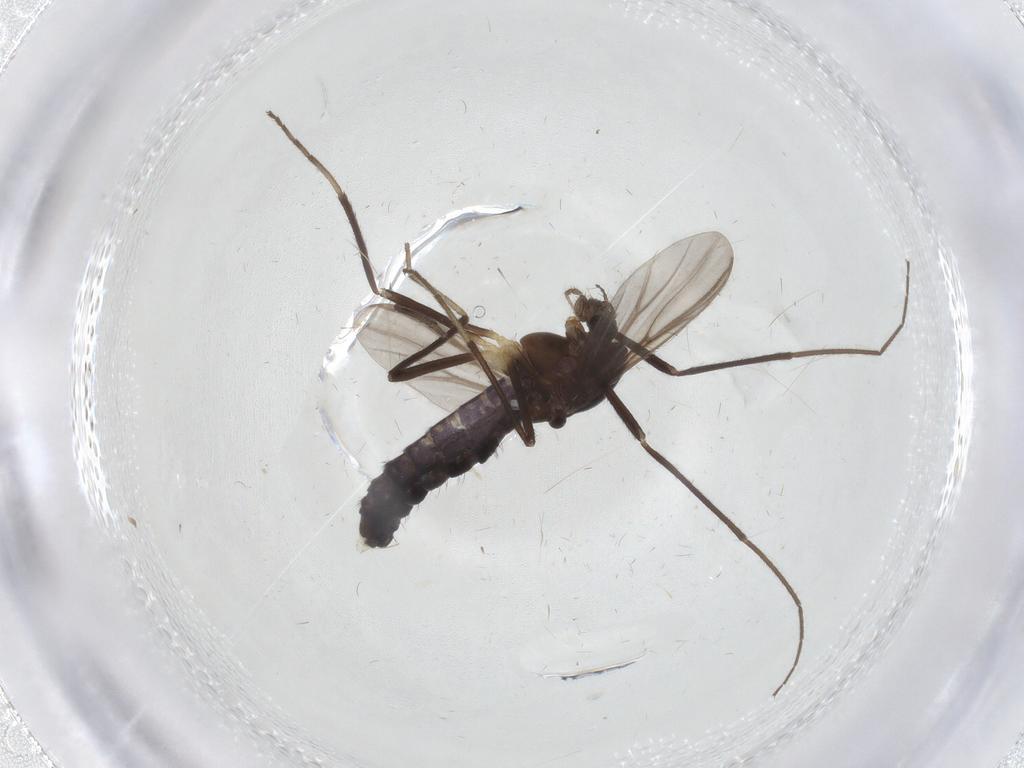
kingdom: Animalia
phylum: Arthropoda
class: Insecta
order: Diptera
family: Chironomidae
